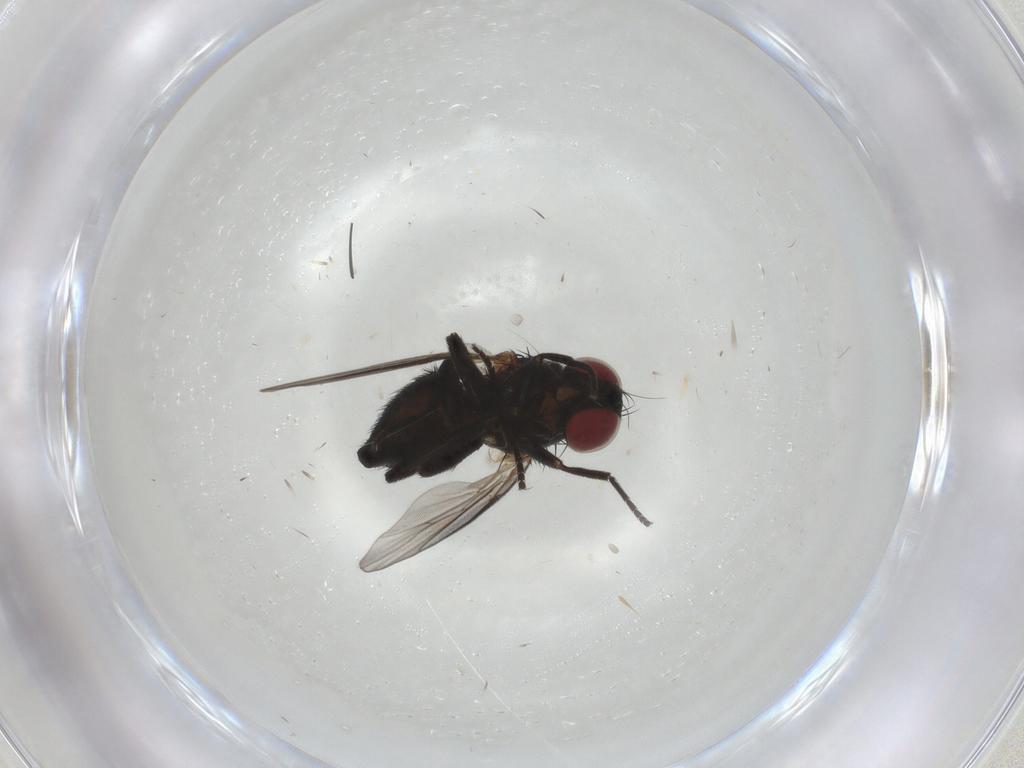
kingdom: Animalia
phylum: Arthropoda
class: Insecta
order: Diptera
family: Agromyzidae
